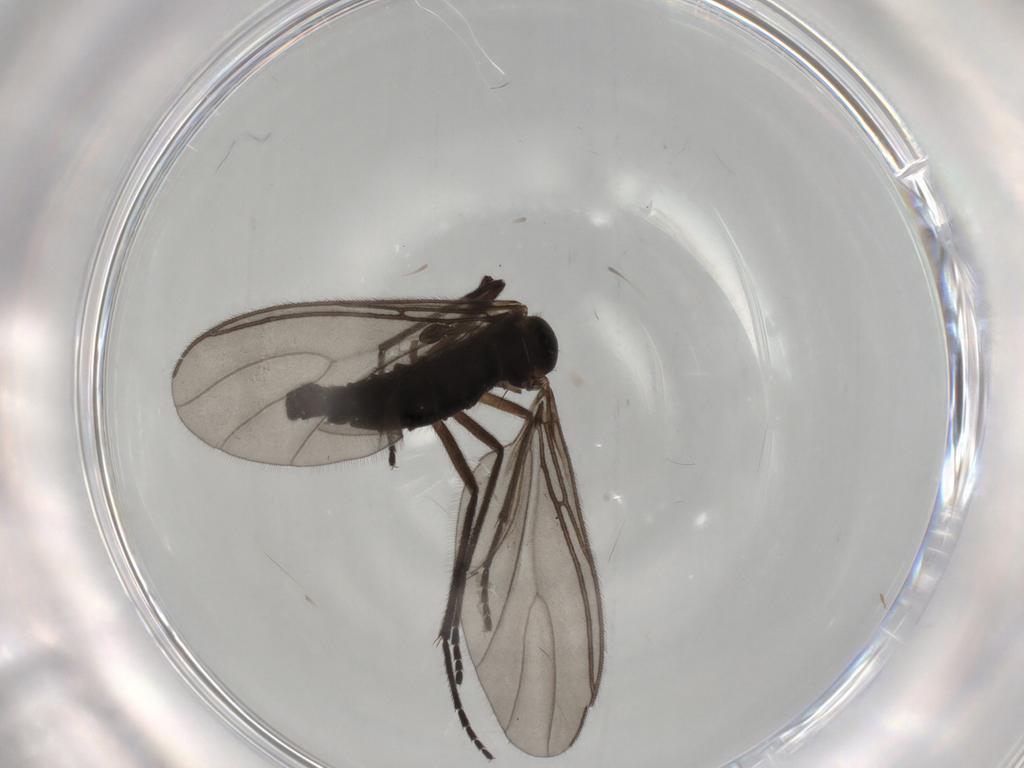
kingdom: Animalia
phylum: Arthropoda
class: Insecta
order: Diptera
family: Sciaridae
